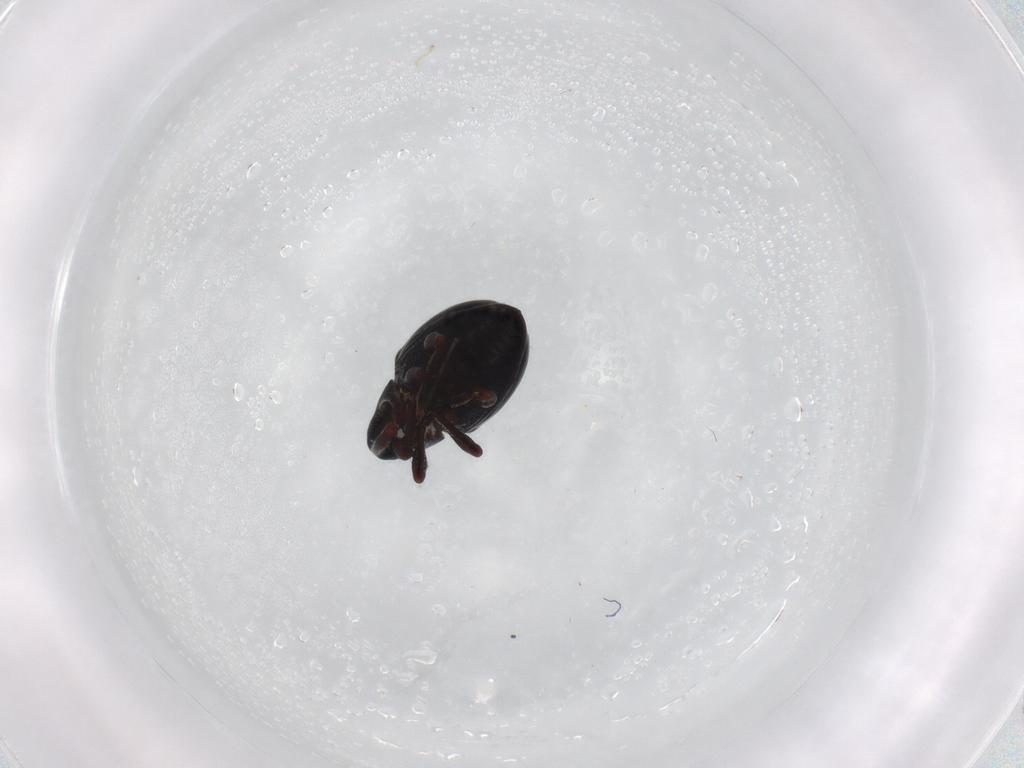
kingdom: Animalia
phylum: Arthropoda
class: Insecta
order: Coleoptera
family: Curculionidae
